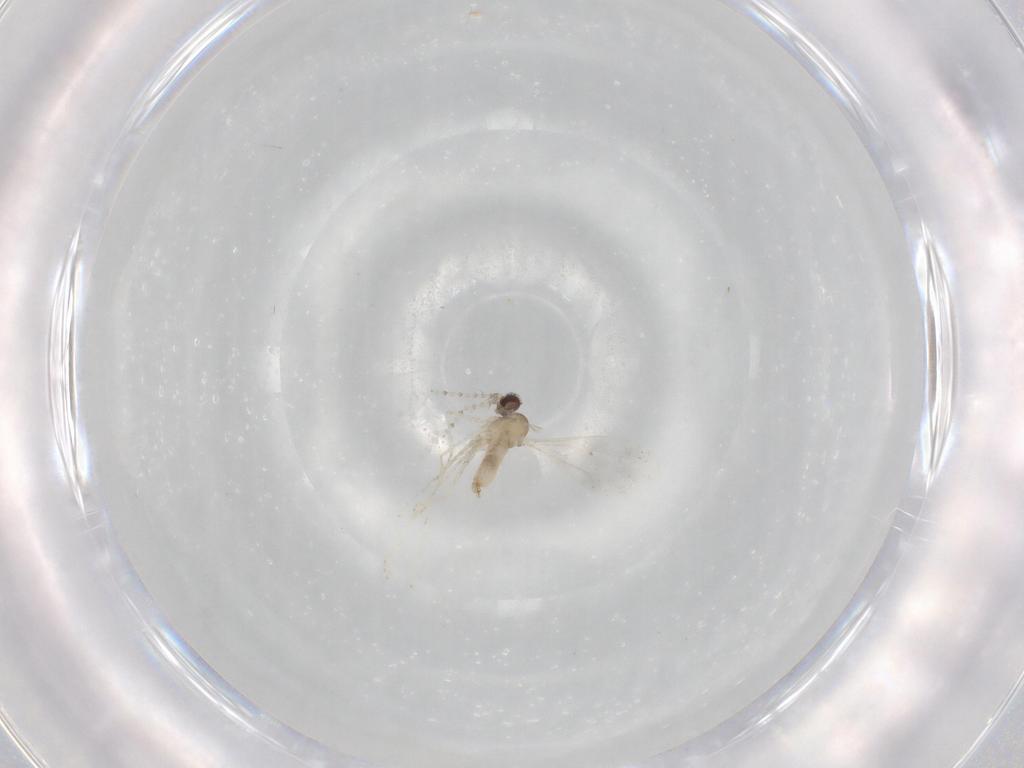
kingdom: Animalia
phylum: Arthropoda
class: Insecta
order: Diptera
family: Cecidomyiidae
